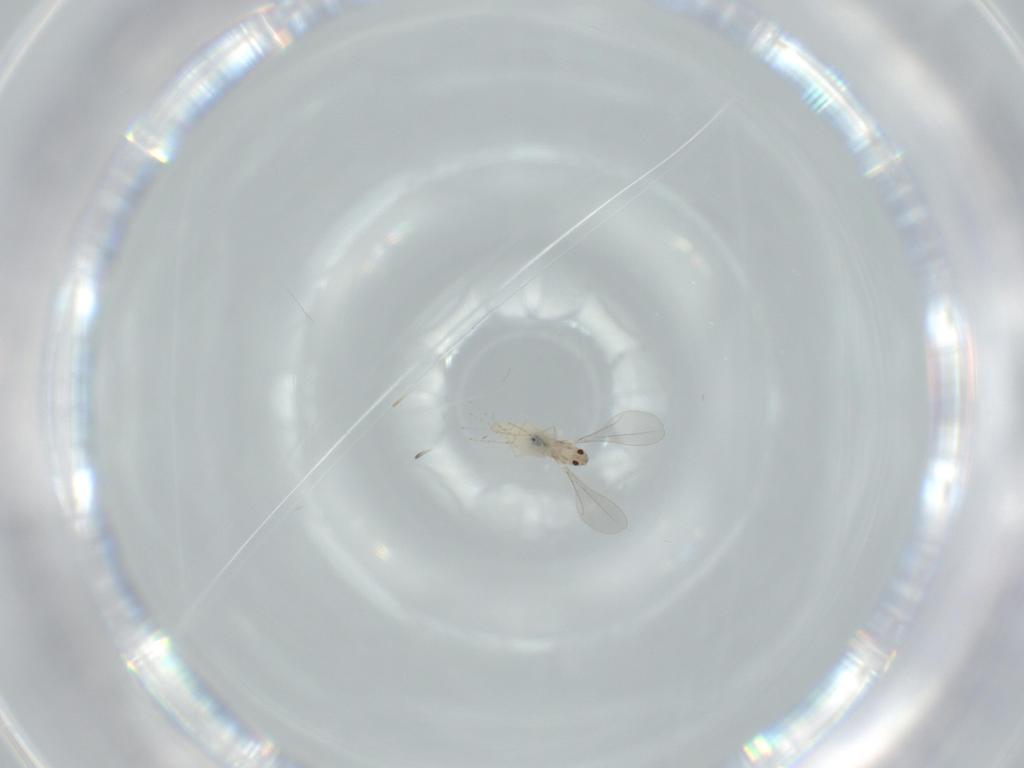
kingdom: Animalia
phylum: Arthropoda
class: Insecta
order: Diptera
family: Cecidomyiidae
